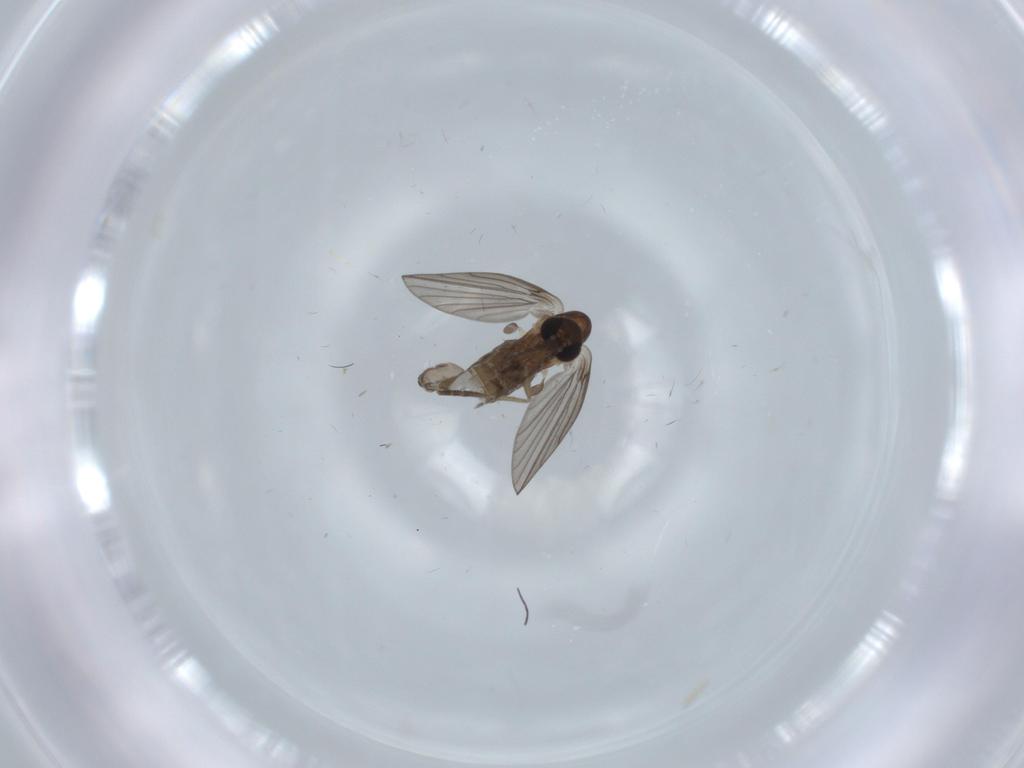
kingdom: Animalia
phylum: Arthropoda
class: Insecta
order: Diptera
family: Psychodidae
